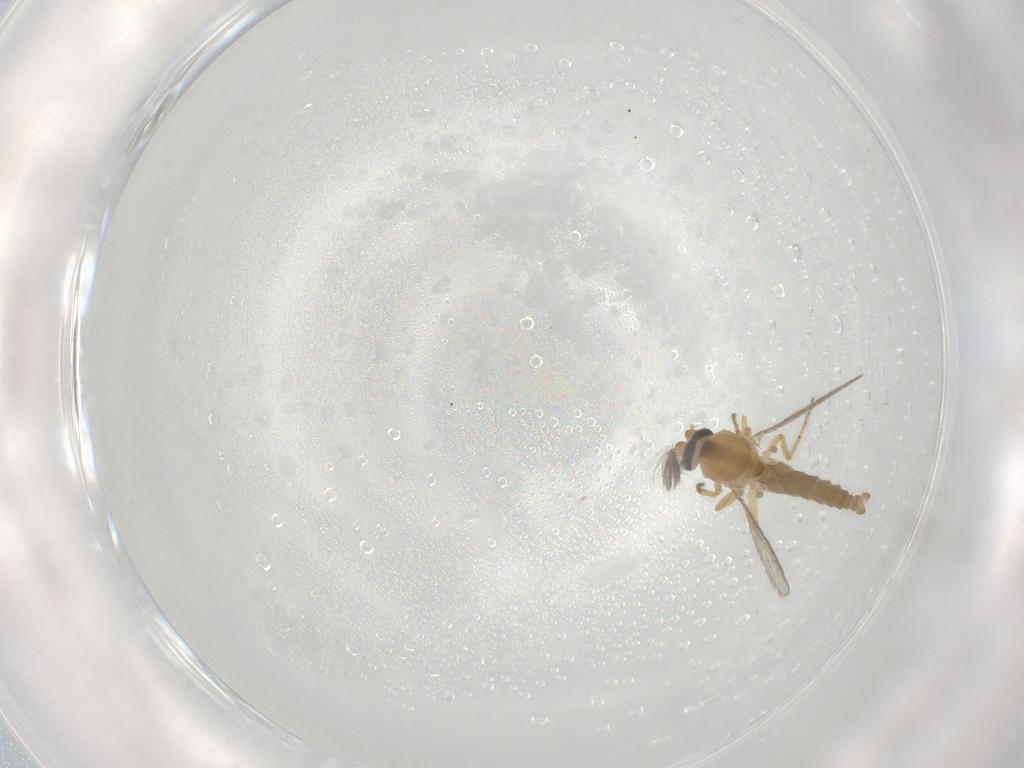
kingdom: Animalia
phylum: Arthropoda
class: Insecta
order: Diptera
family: Ceratopogonidae
